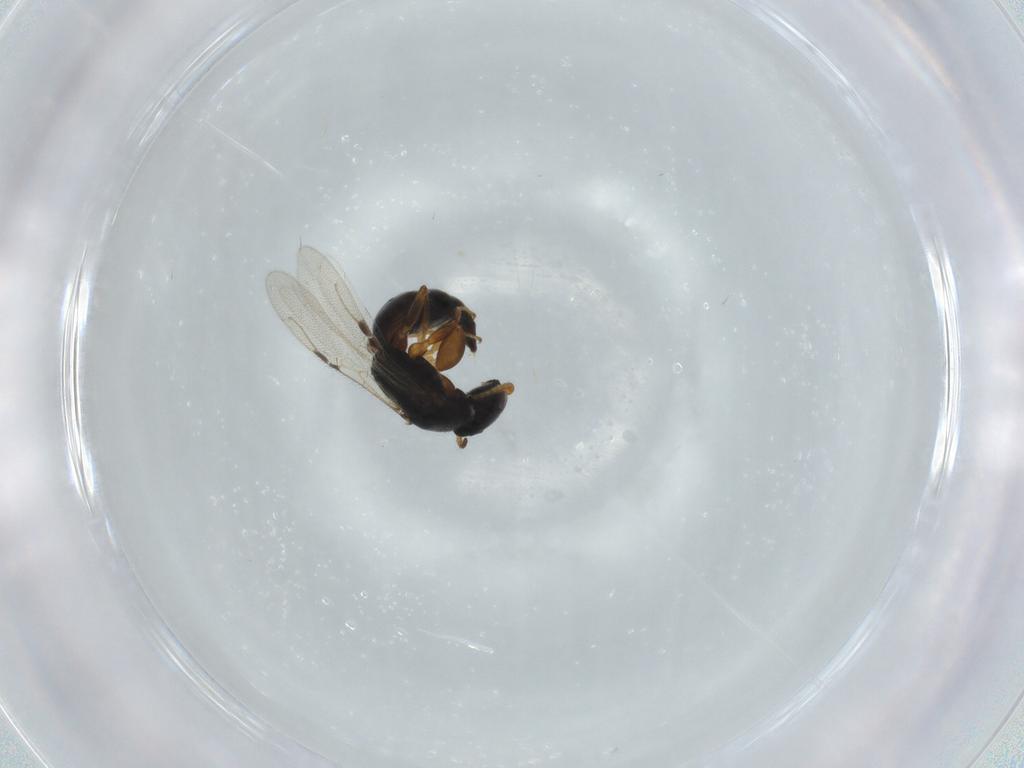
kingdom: Animalia
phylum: Arthropoda
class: Insecta
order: Hymenoptera
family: Bethylidae
